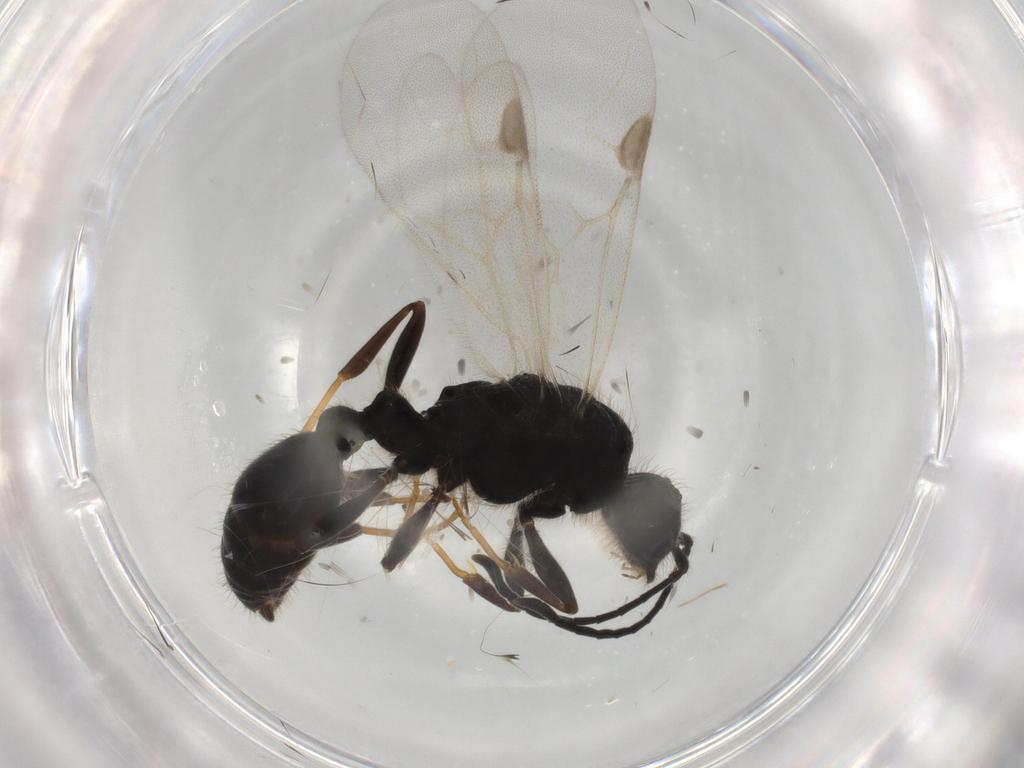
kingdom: Animalia
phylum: Arthropoda
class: Insecta
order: Hymenoptera
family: Formicidae
